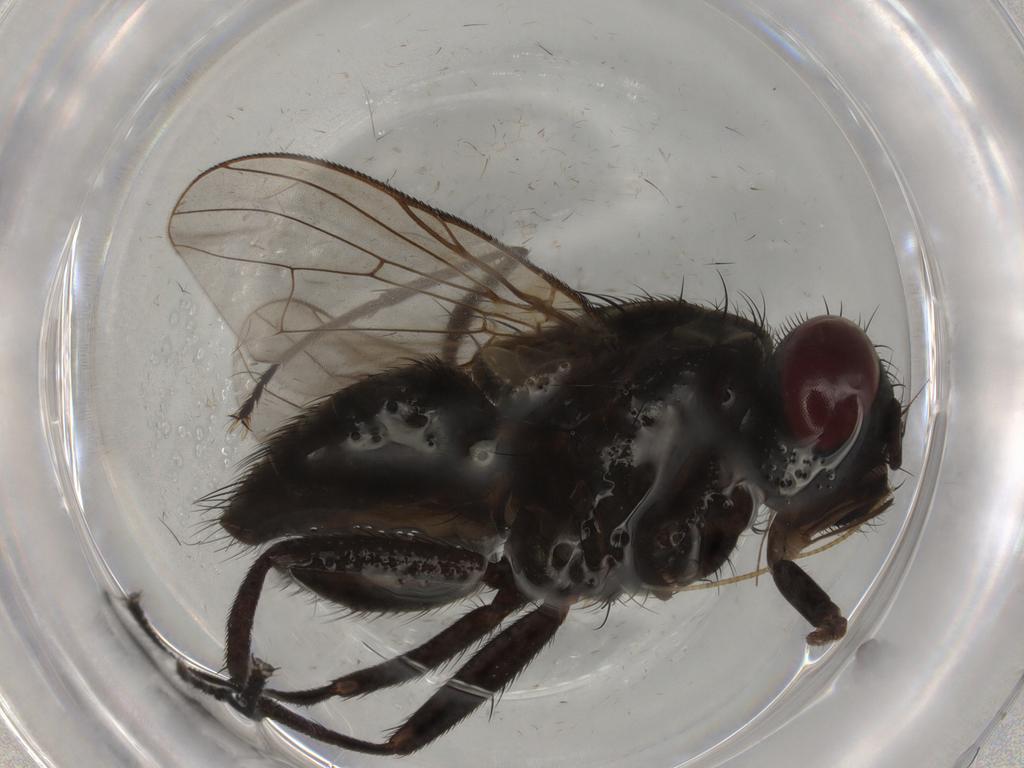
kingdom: Animalia
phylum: Arthropoda
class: Insecta
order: Diptera
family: Muscidae
